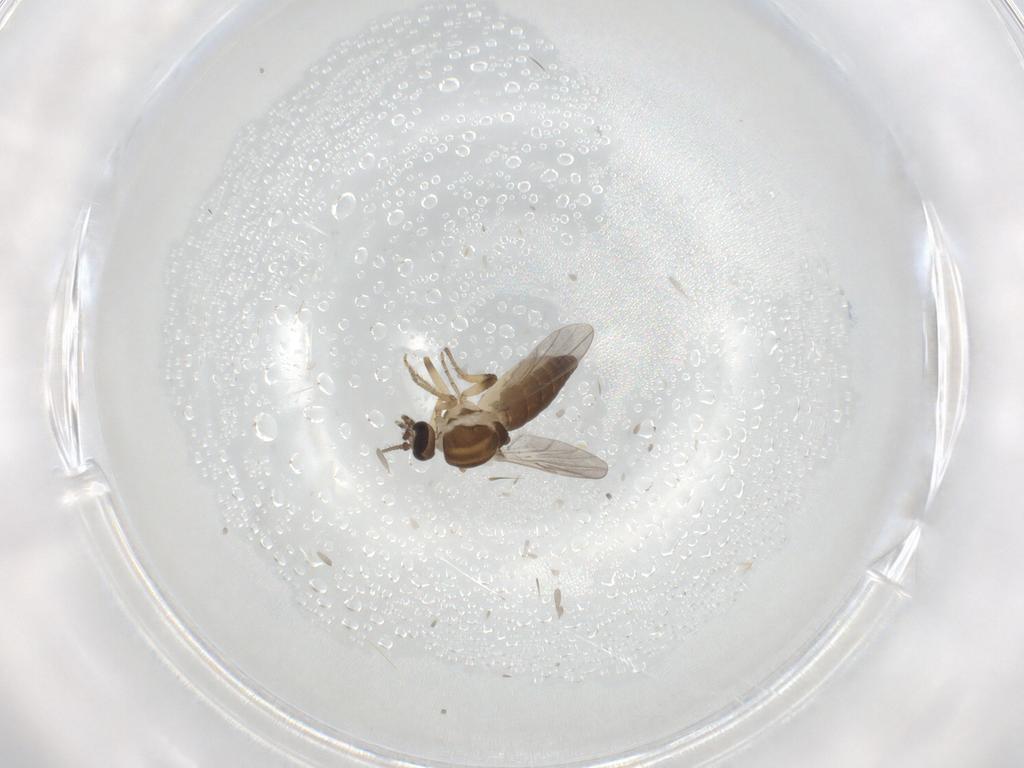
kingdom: Animalia
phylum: Arthropoda
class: Insecta
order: Diptera
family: Ceratopogonidae
